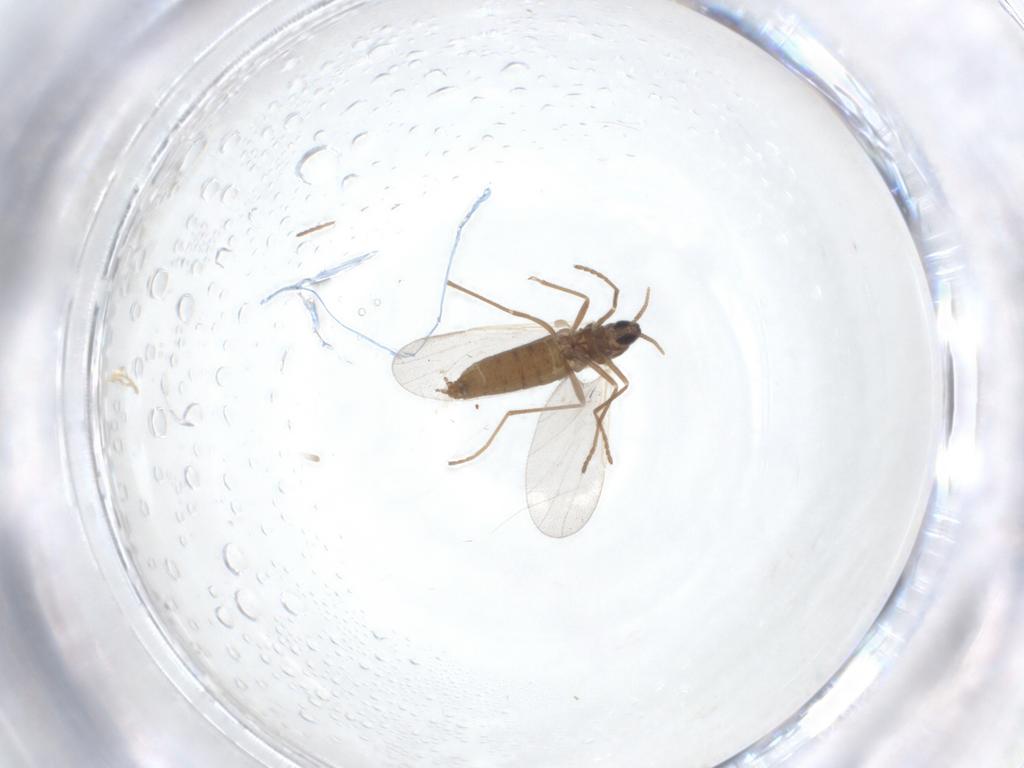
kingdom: Animalia
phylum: Arthropoda
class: Insecta
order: Diptera
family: Cecidomyiidae
